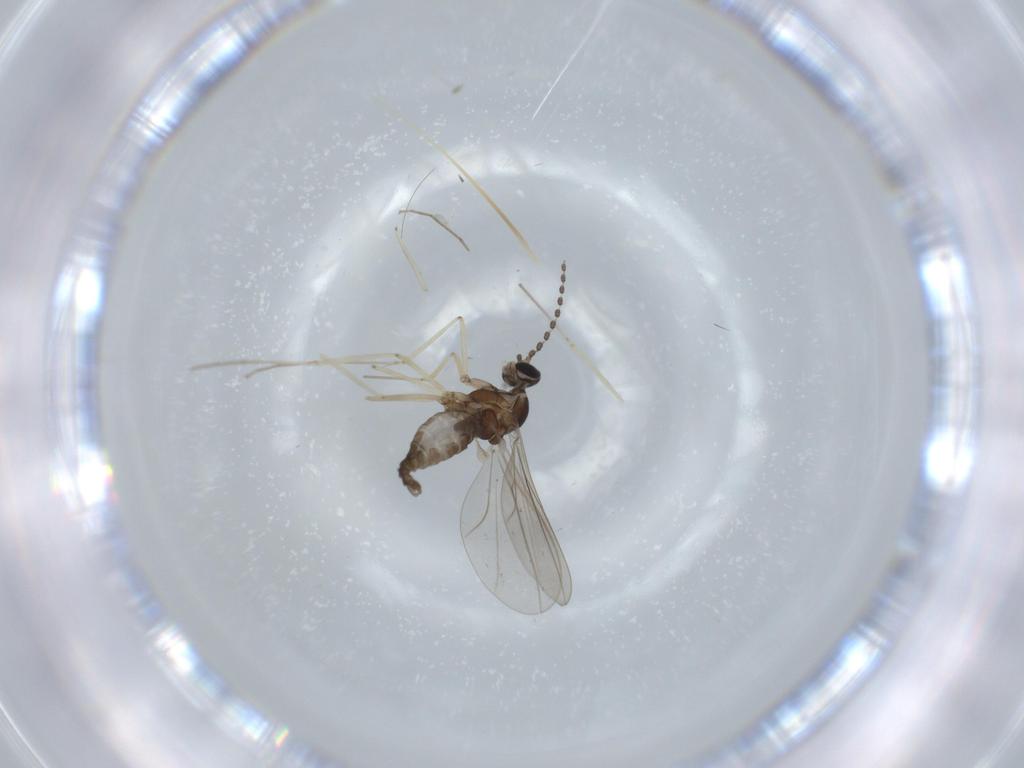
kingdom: Animalia
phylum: Arthropoda
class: Insecta
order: Diptera
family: Cecidomyiidae
